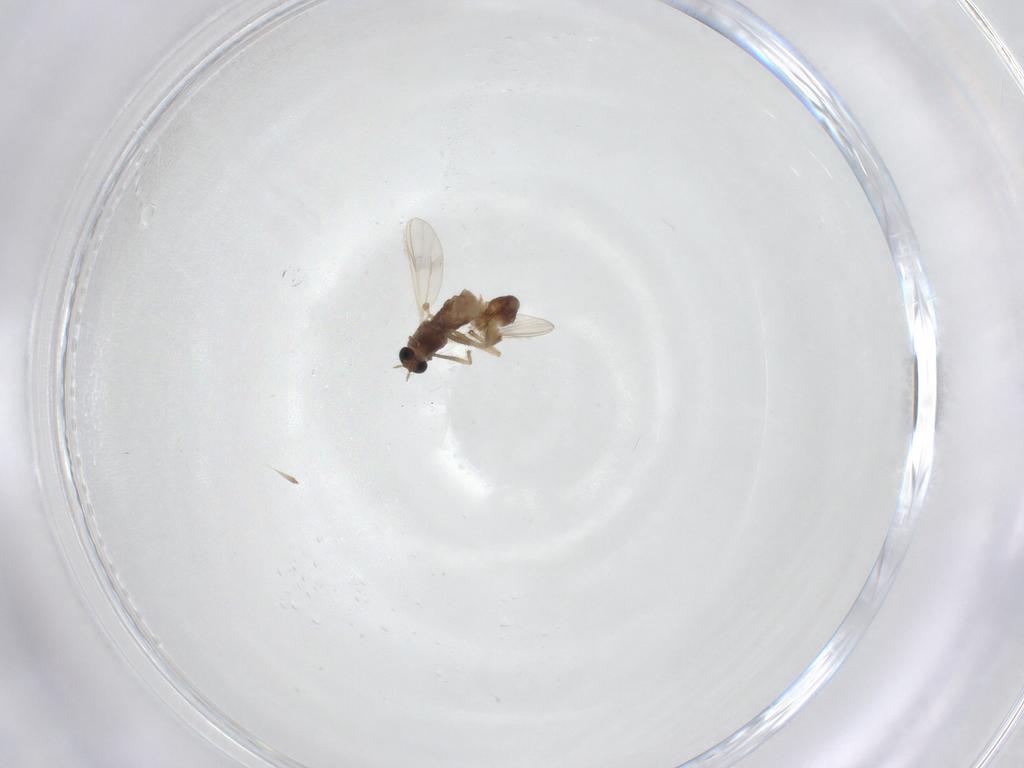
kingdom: Animalia
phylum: Arthropoda
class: Insecta
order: Diptera
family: Chironomidae
